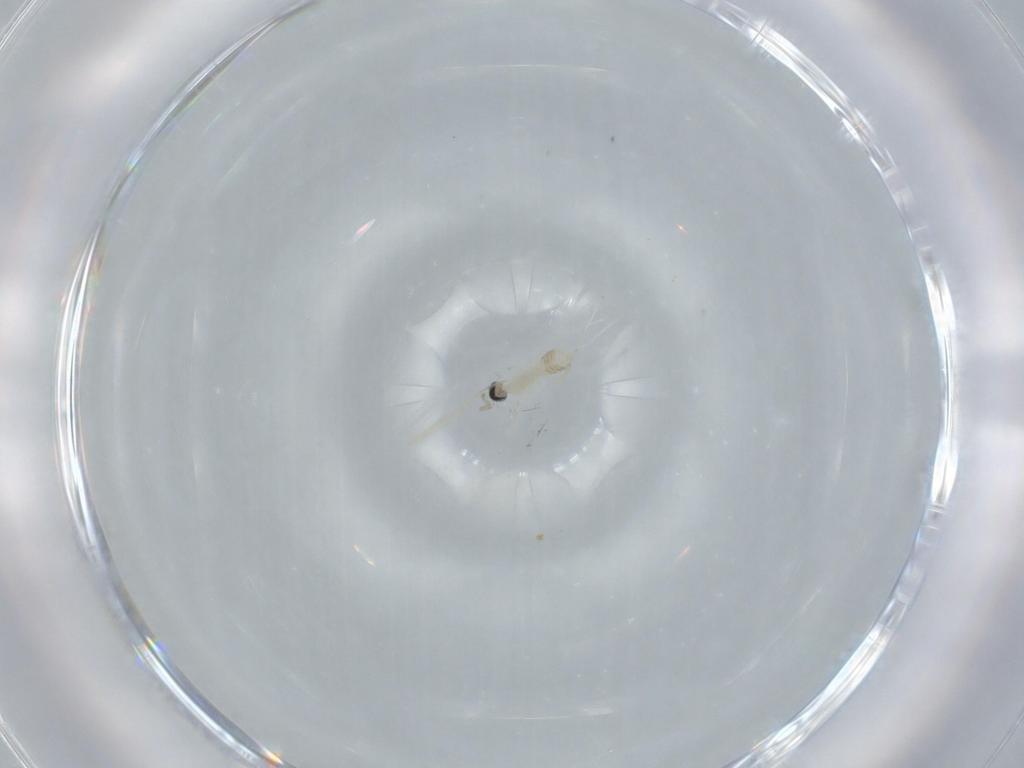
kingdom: Animalia
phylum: Arthropoda
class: Insecta
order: Diptera
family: Cecidomyiidae
